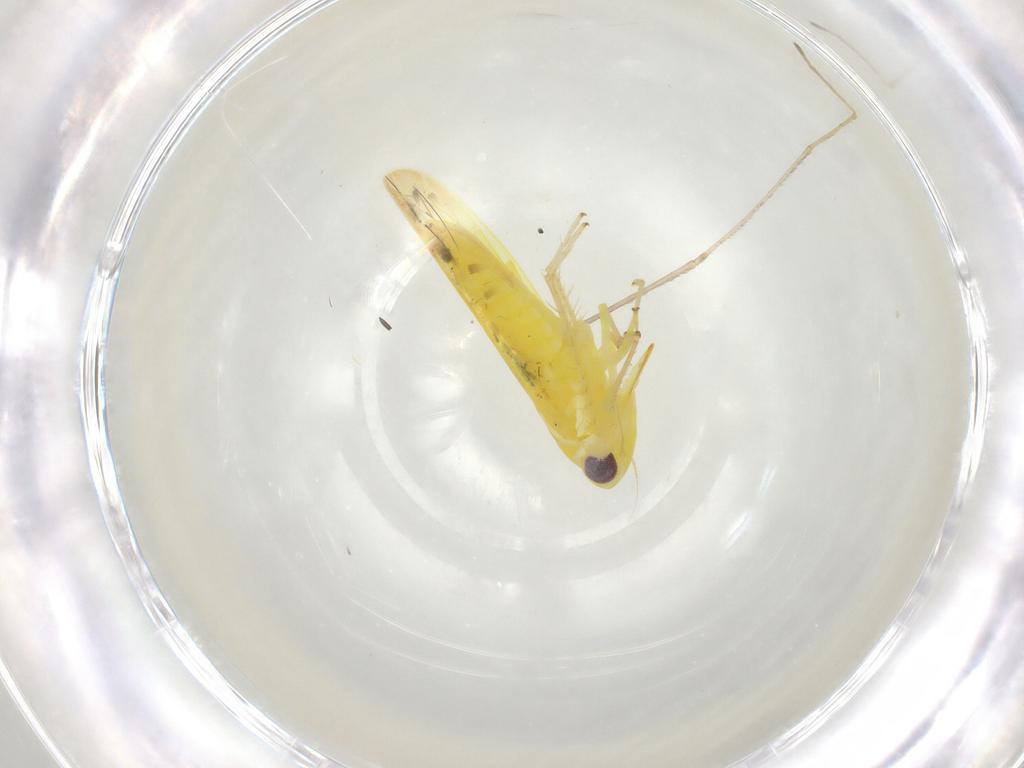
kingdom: Animalia
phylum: Arthropoda
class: Insecta
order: Hemiptera
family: Cicadellidae
